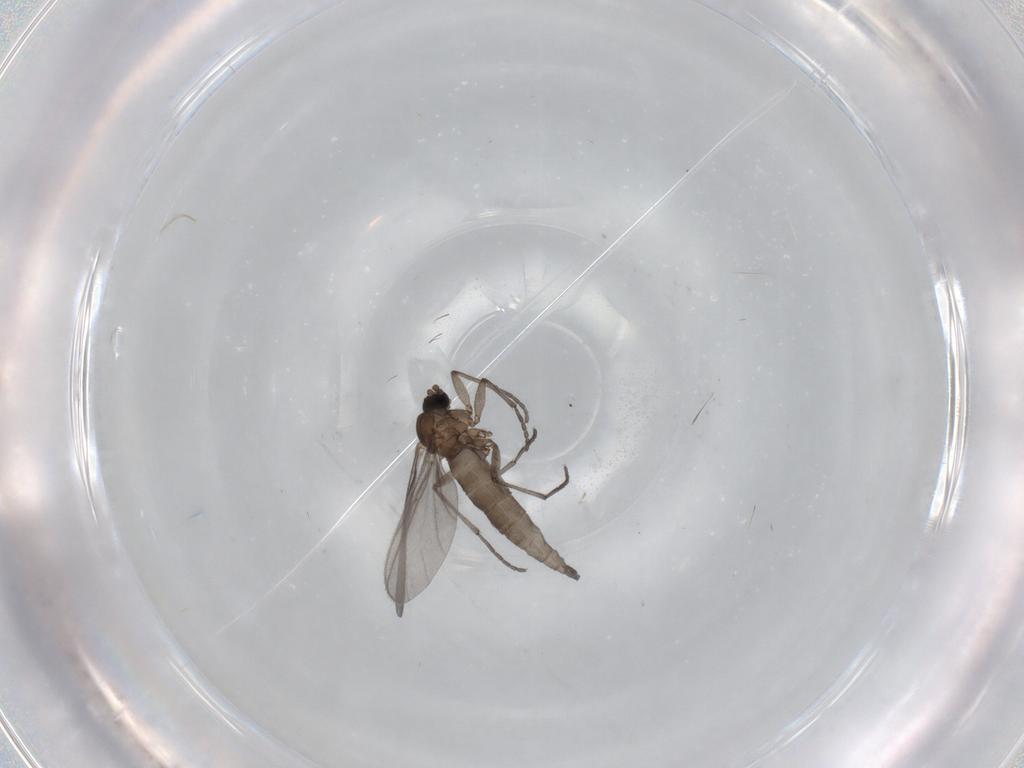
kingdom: Animalia
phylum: Arthropoda
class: Insecta
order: Diptera
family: Sciaridae
